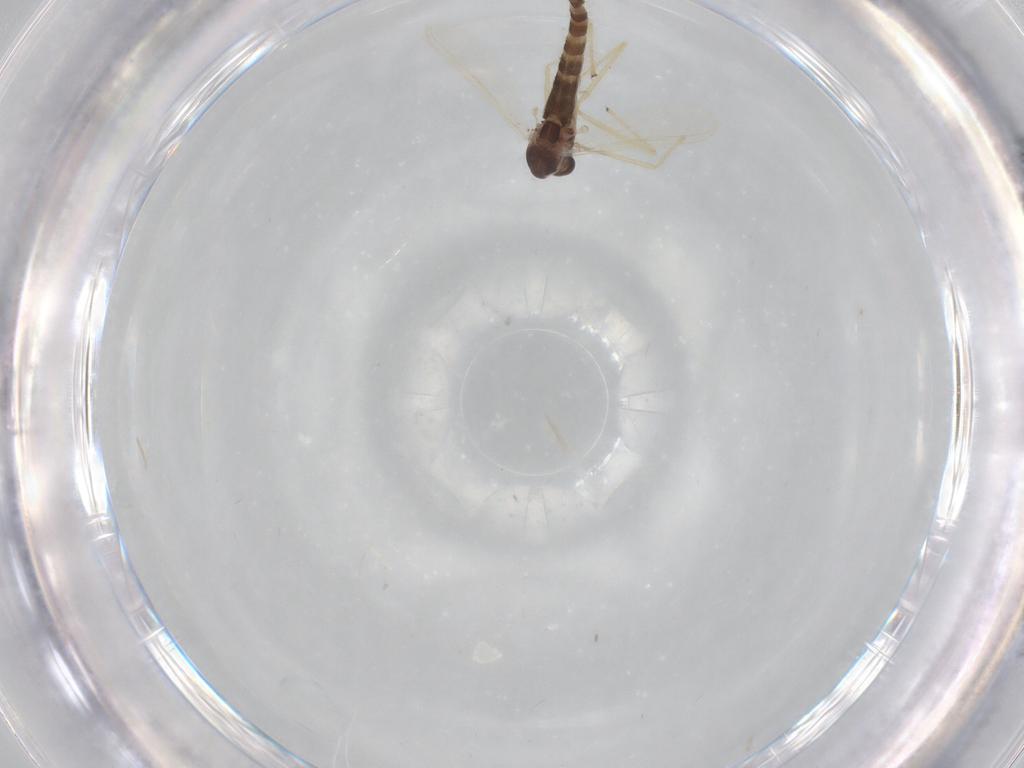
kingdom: Animalia
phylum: Arthropoda
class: Insecta
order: Diptera
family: Chironomidae
